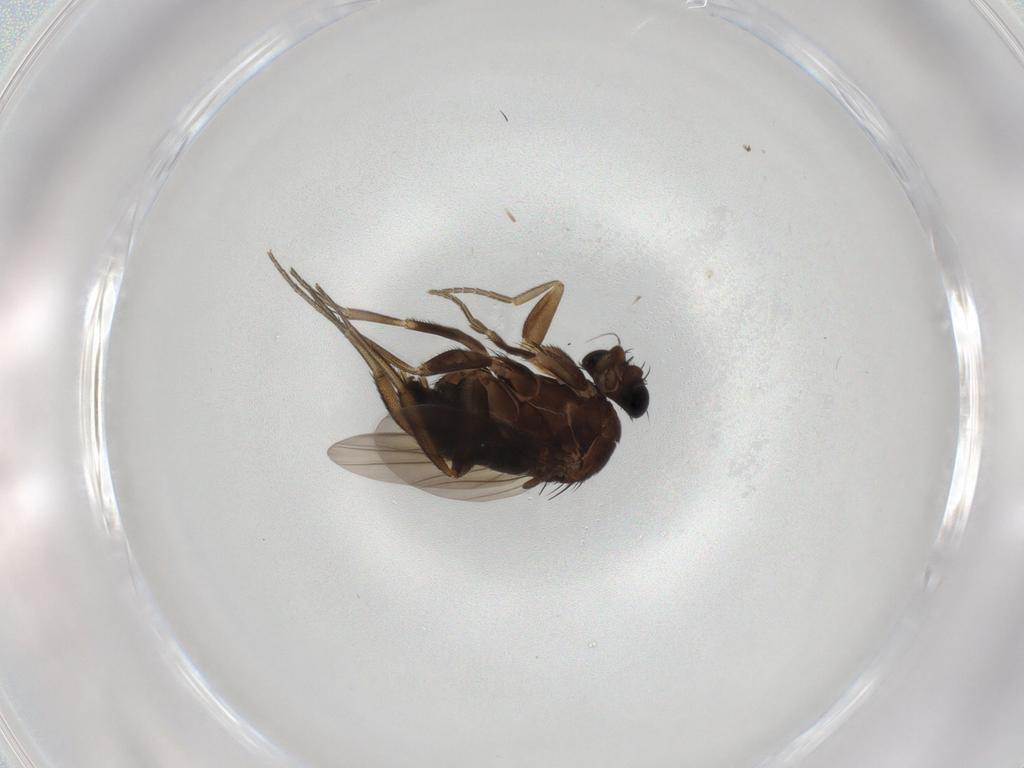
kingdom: Animalia
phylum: Arthropoda
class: Insecta
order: Diptera
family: Phoridae
